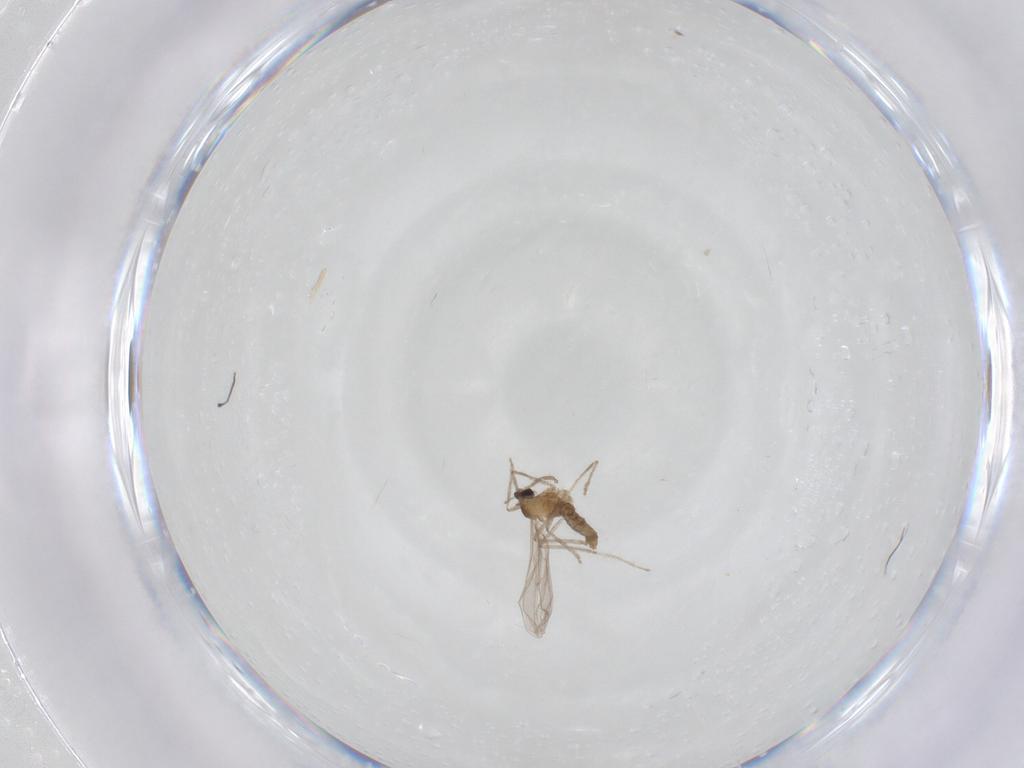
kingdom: Animalia
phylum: Arthropoda
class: Insecta
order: Diptera
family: Cecidomyiidae
